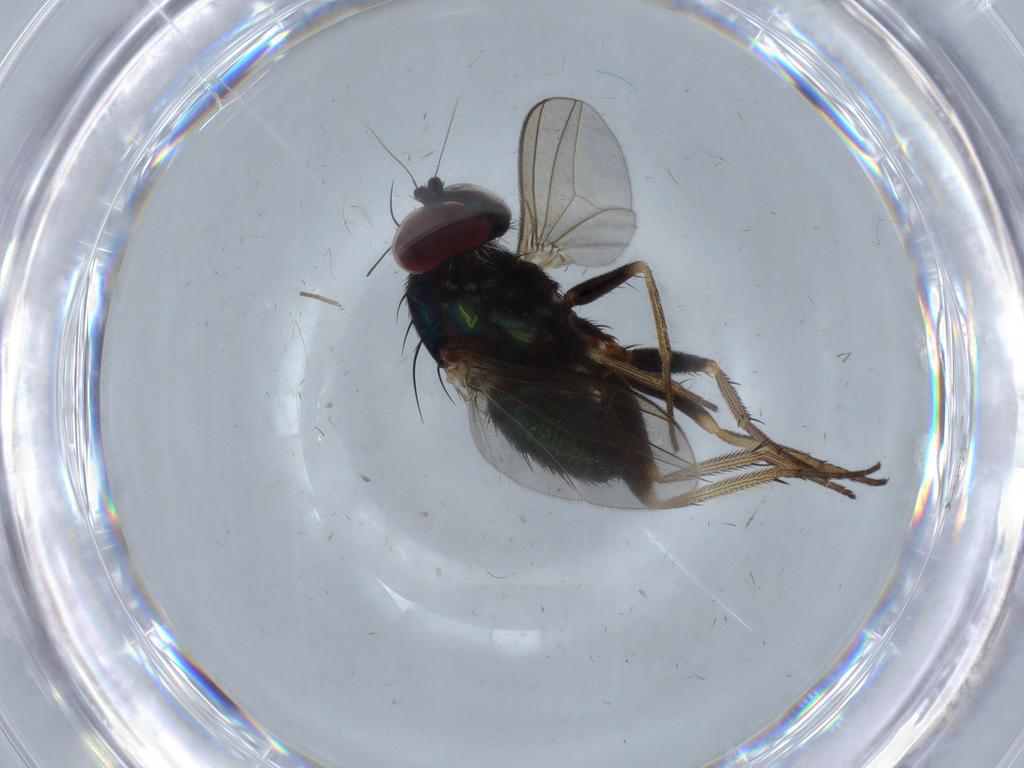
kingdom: Animalia
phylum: Arthropoda
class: Insecta
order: Diptera
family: Dolichopodidae
